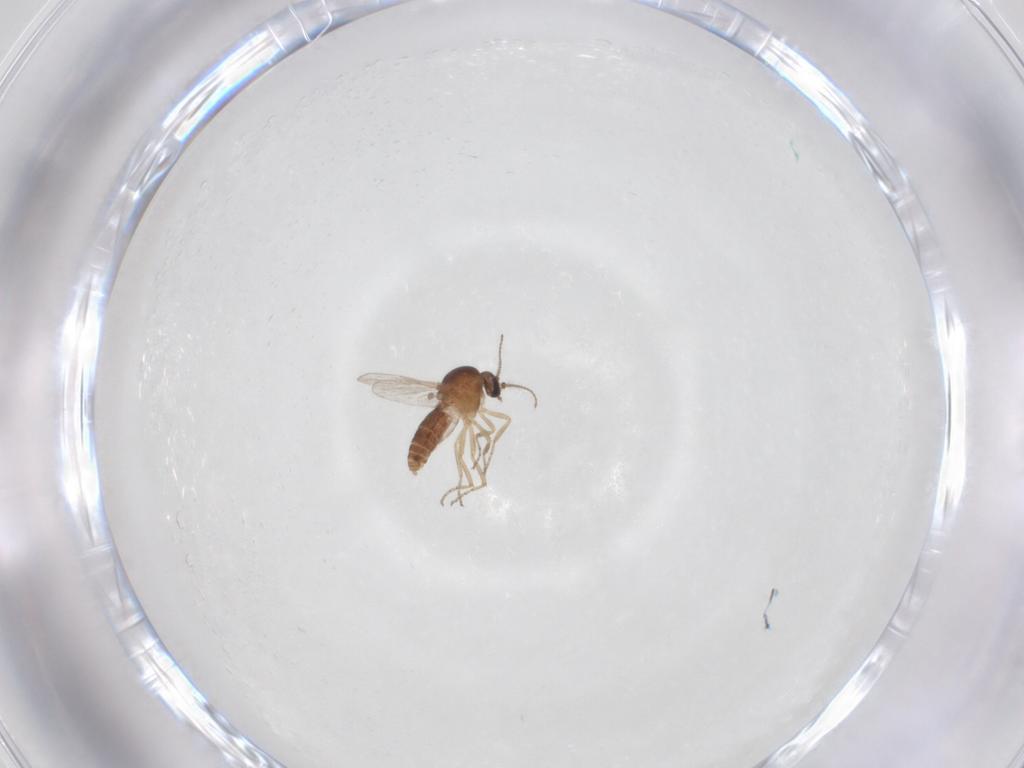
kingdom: Animalia
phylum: Arthropoda
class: Insecta
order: Diptera
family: Ceratopogonidae
